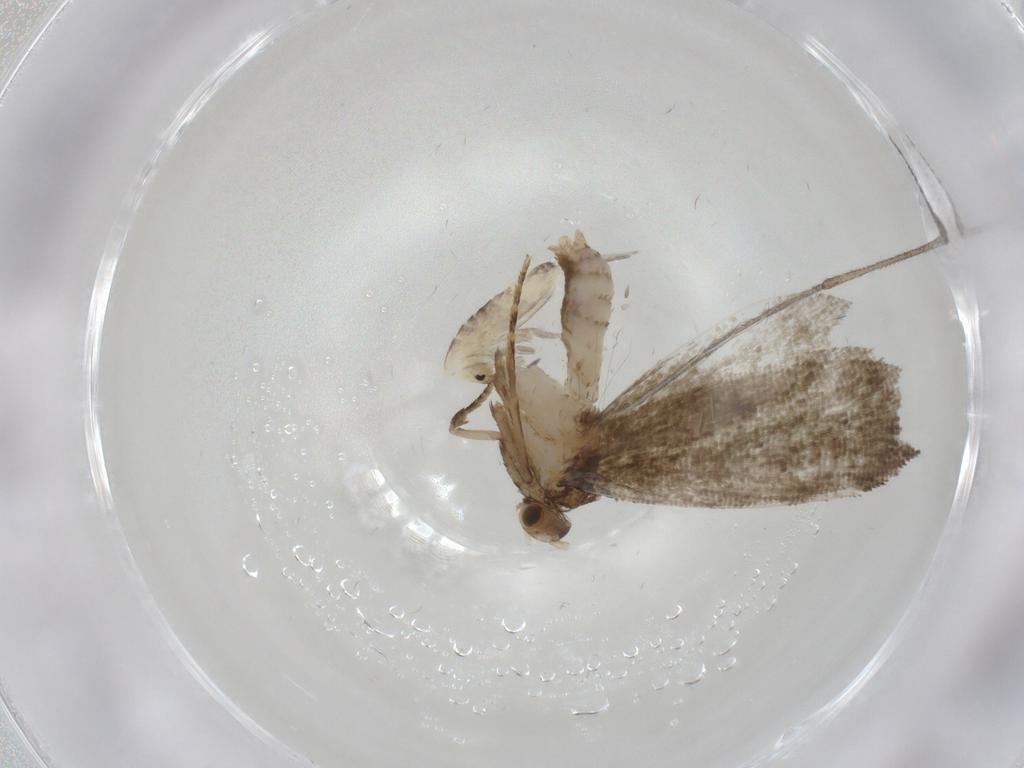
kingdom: Animalia
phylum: Arthropoda
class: Insecta
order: Lepidoptera
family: Tineidae
